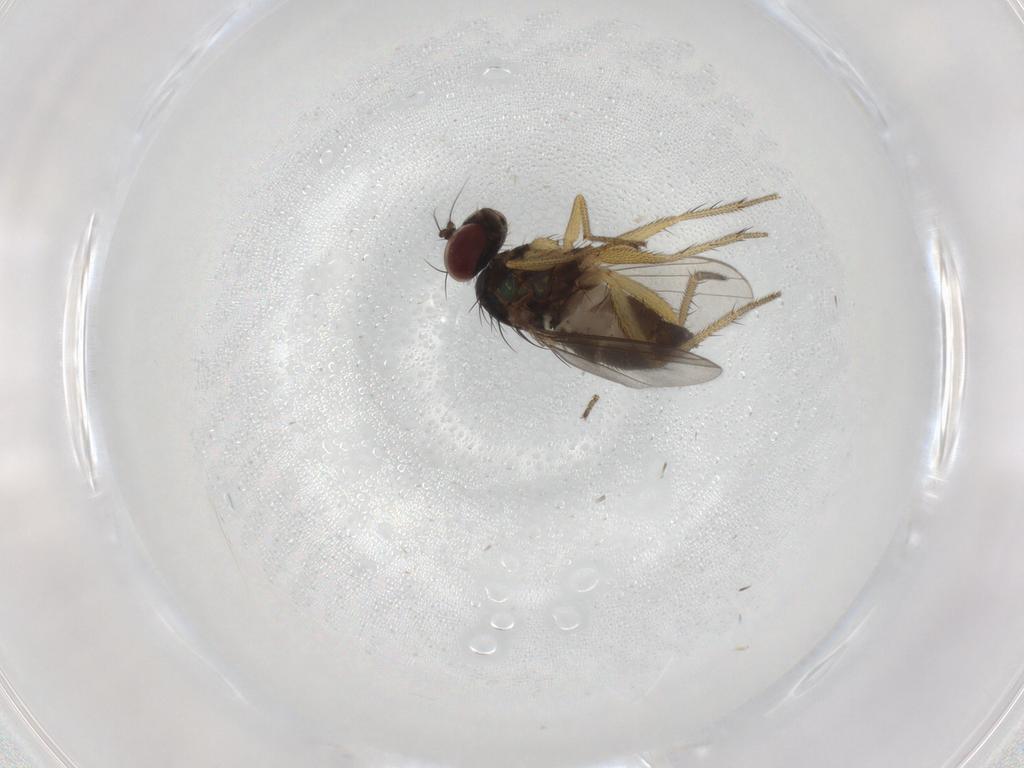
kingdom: Animalia
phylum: Arthropoda
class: Insecta
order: Diptera
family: Dolichopodidae
